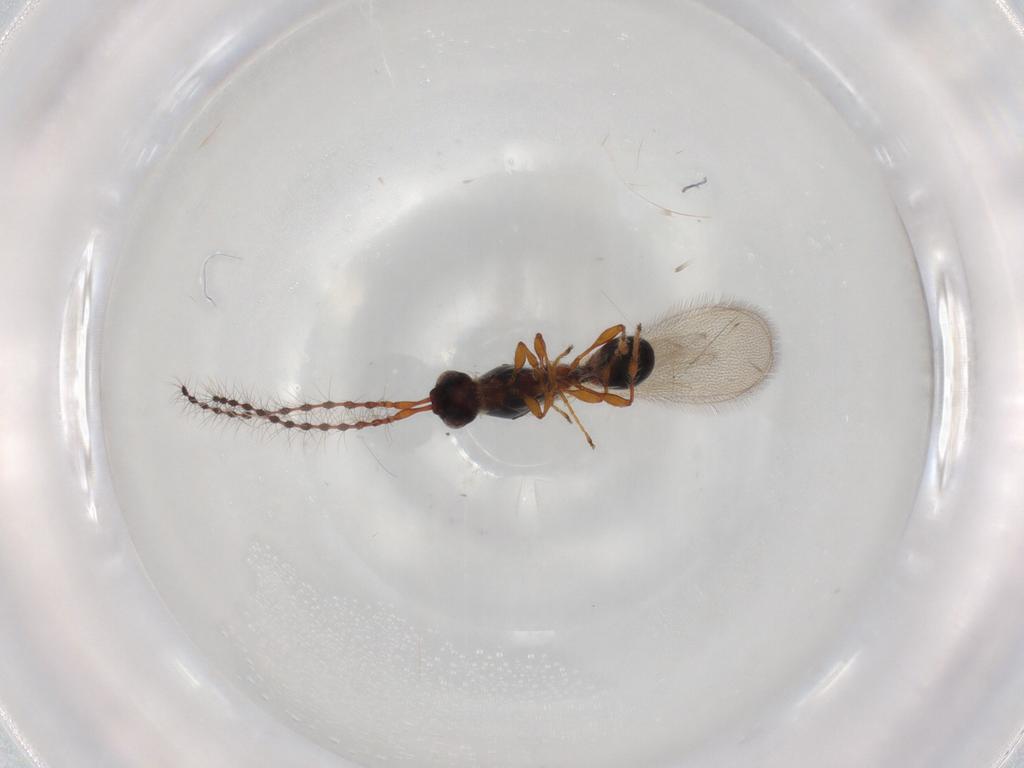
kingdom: Animalia
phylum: Arthropoda
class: Insecta
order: Hymenoptera
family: Diapriidae
